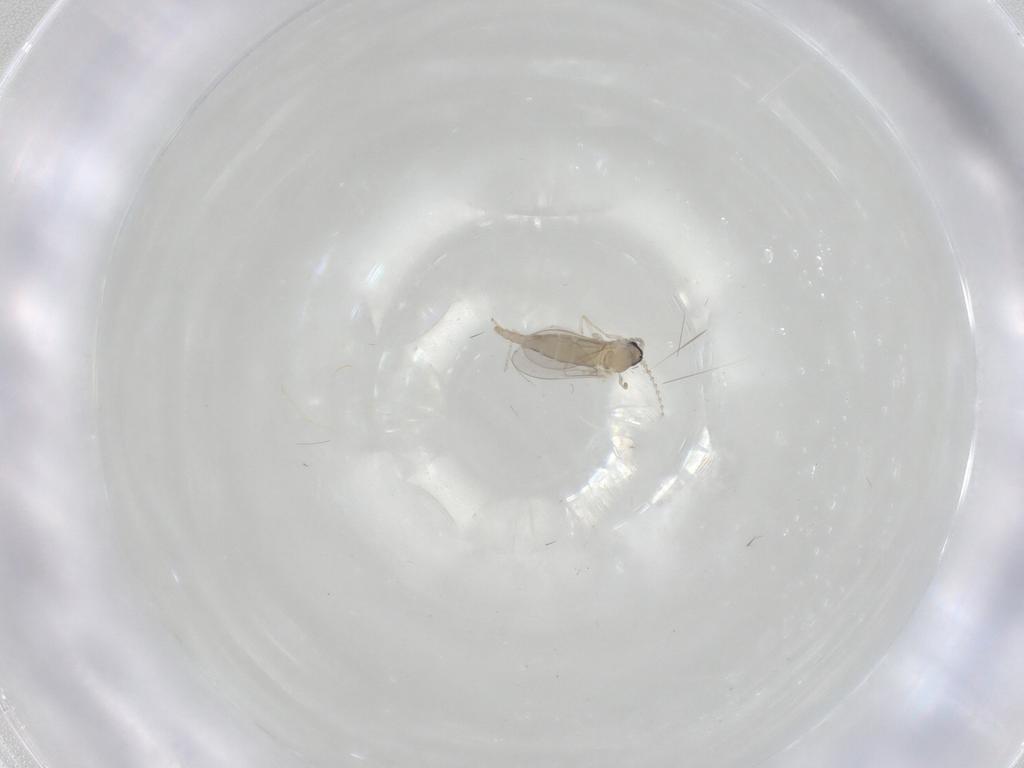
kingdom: Animalia
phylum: Arthropoda
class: Insecta
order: Diptera
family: Cecidomyiidae
